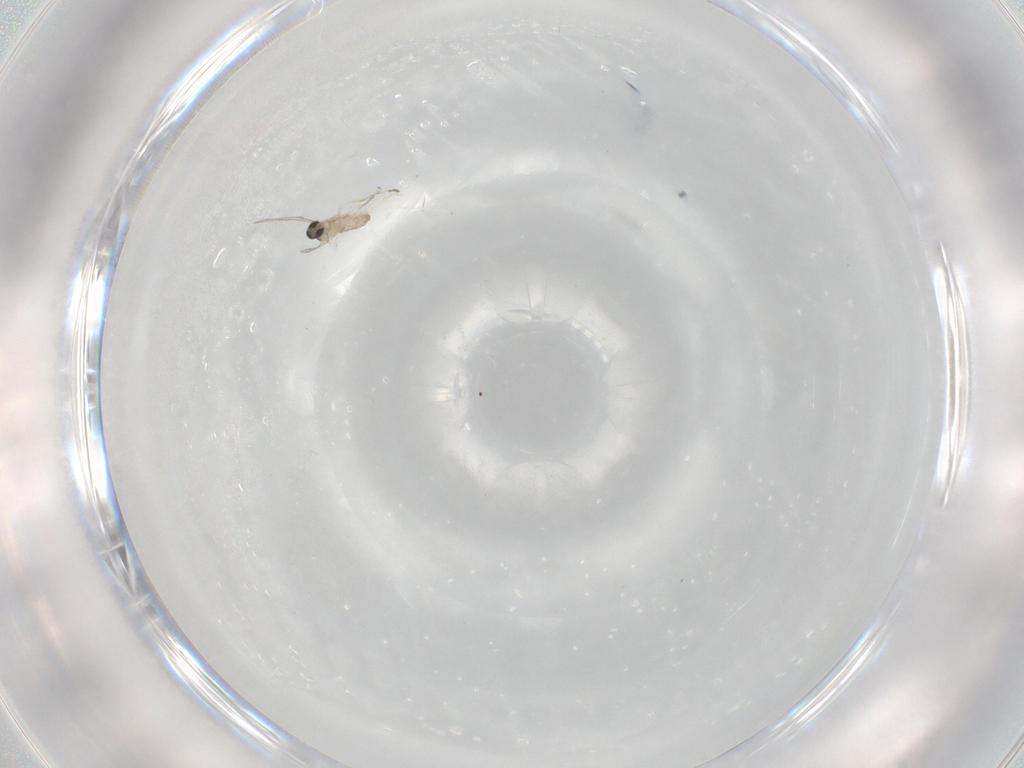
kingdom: Animalia
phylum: Arthropoda
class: Insecta
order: Diptera
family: Cecidomyiidae
